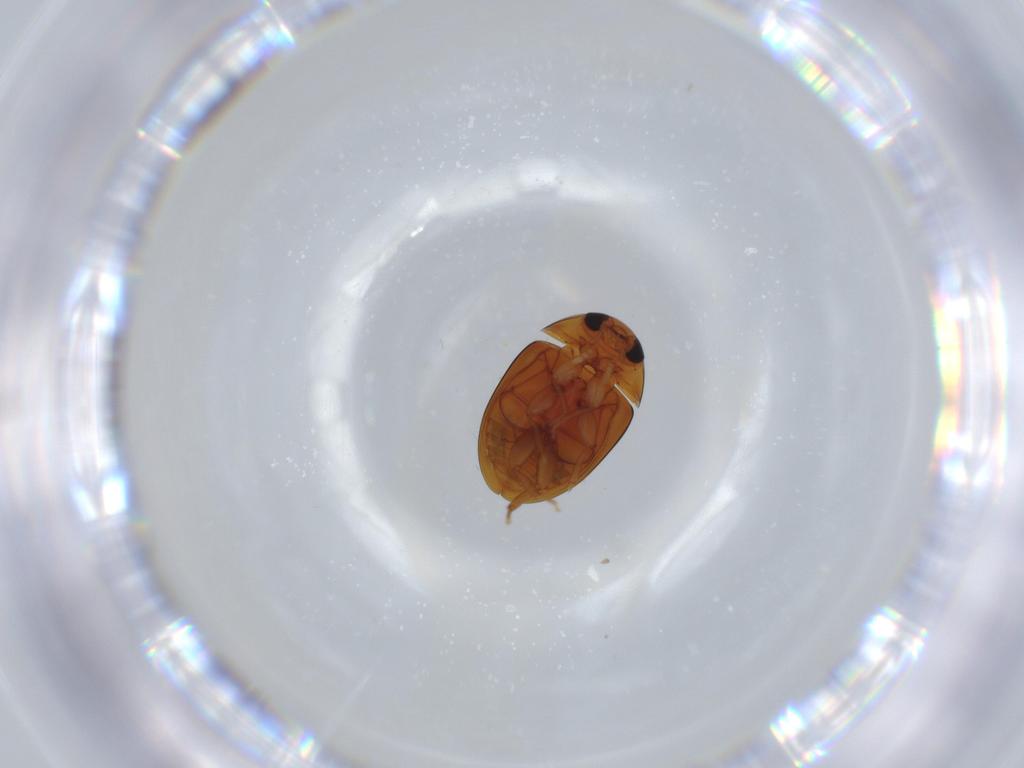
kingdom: Animalia
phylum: Arthropoda
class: Insecta
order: Coleoptera
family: Phalacridae
